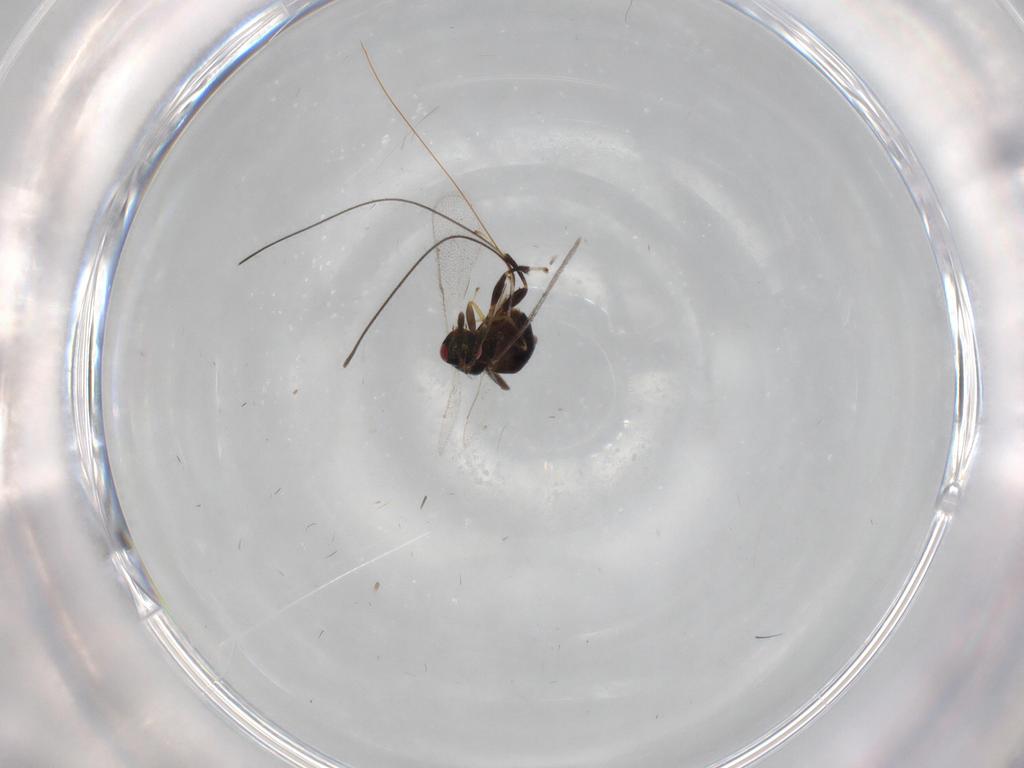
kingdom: Animalia
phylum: Arthropoda
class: Insecta
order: Hymenoptera
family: Torymidae
